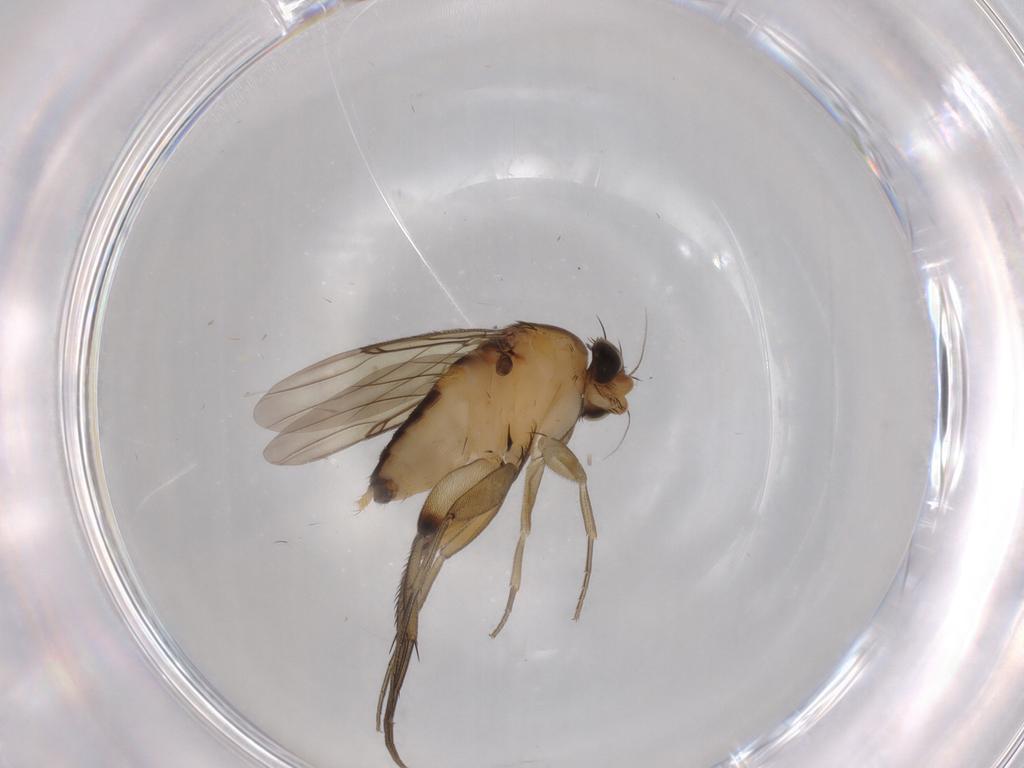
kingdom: Animalia
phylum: Arthropoda
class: Insecta
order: Diptera
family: Phoridae
